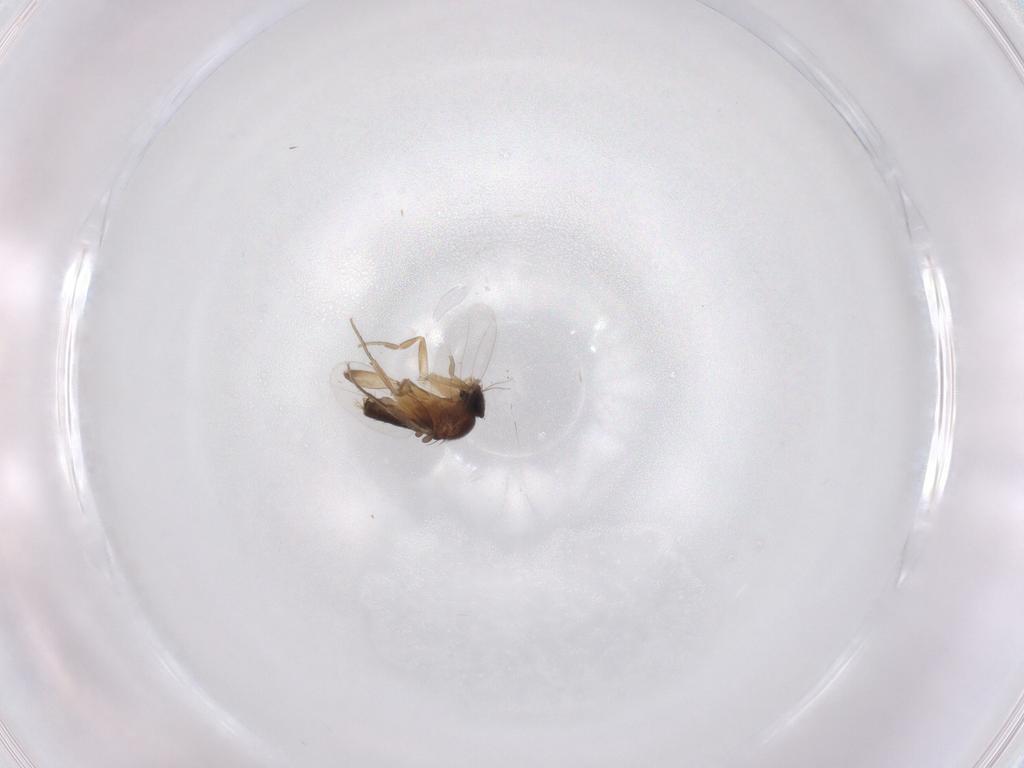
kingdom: Animalia
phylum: Arthropoda
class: Insecta
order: Diptera
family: Phoridae
